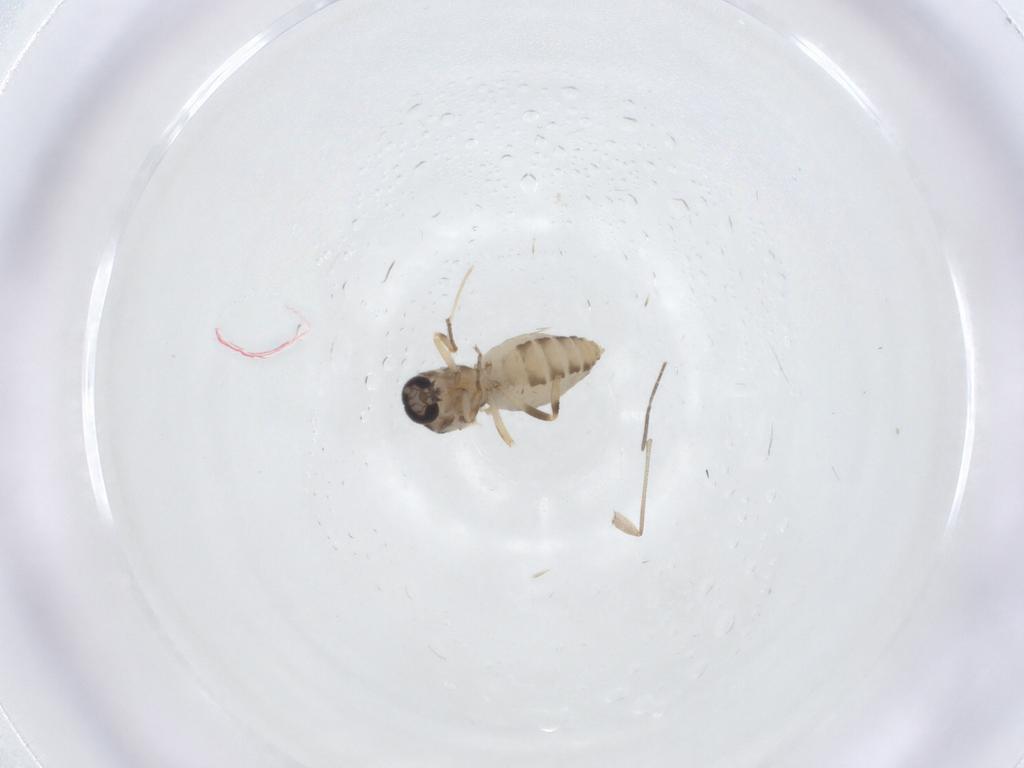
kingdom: Animalia
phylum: Arthropoda
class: Insecta
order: Diptera
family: Ceratopogonidae
